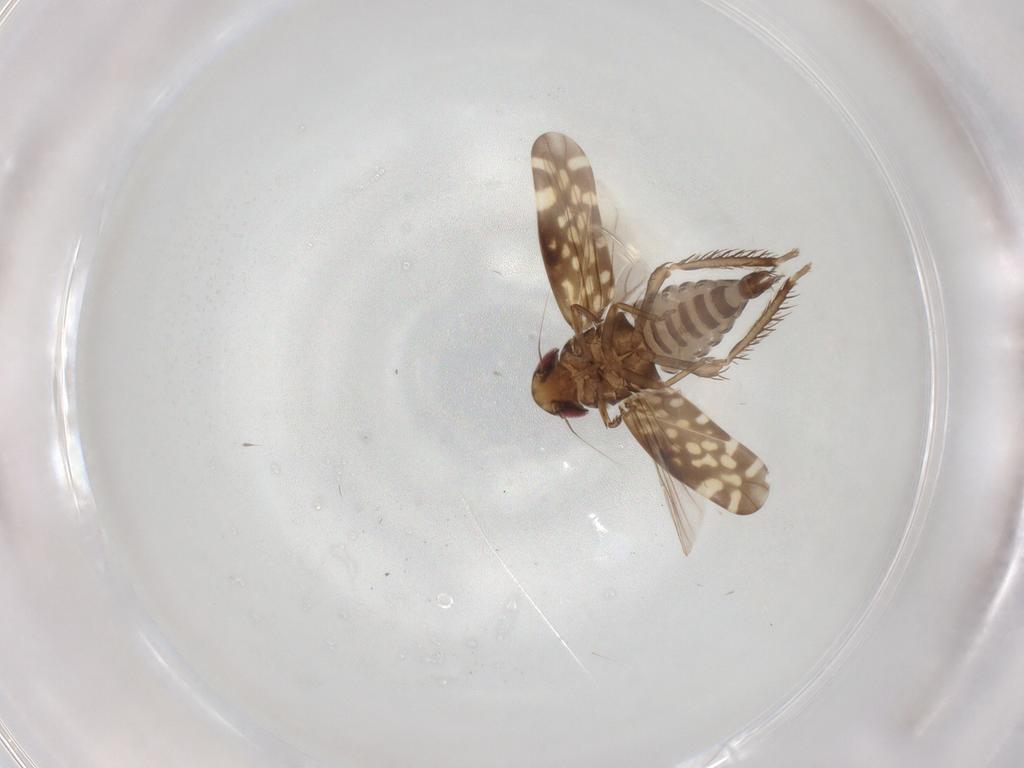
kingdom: Animalia
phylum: Arthropoda
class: Insecta
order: Hemiptera
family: Cicadellidae
